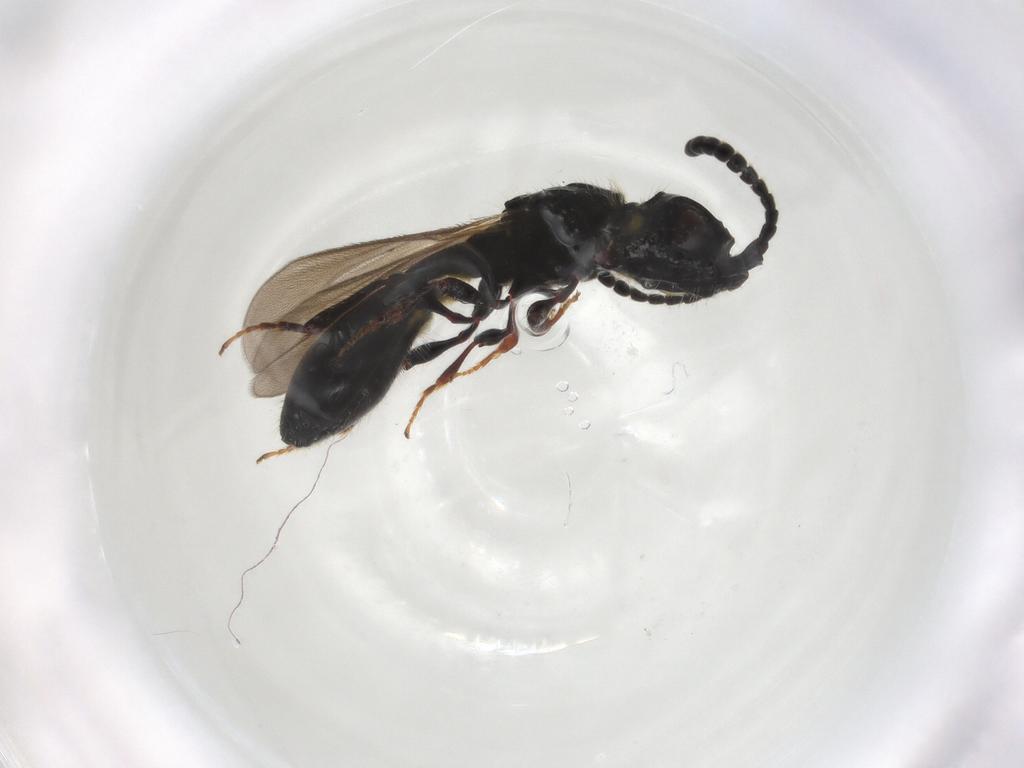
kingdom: Animalia
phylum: Arthropoda
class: Insecta
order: Hymenoptera
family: Diapriidae
